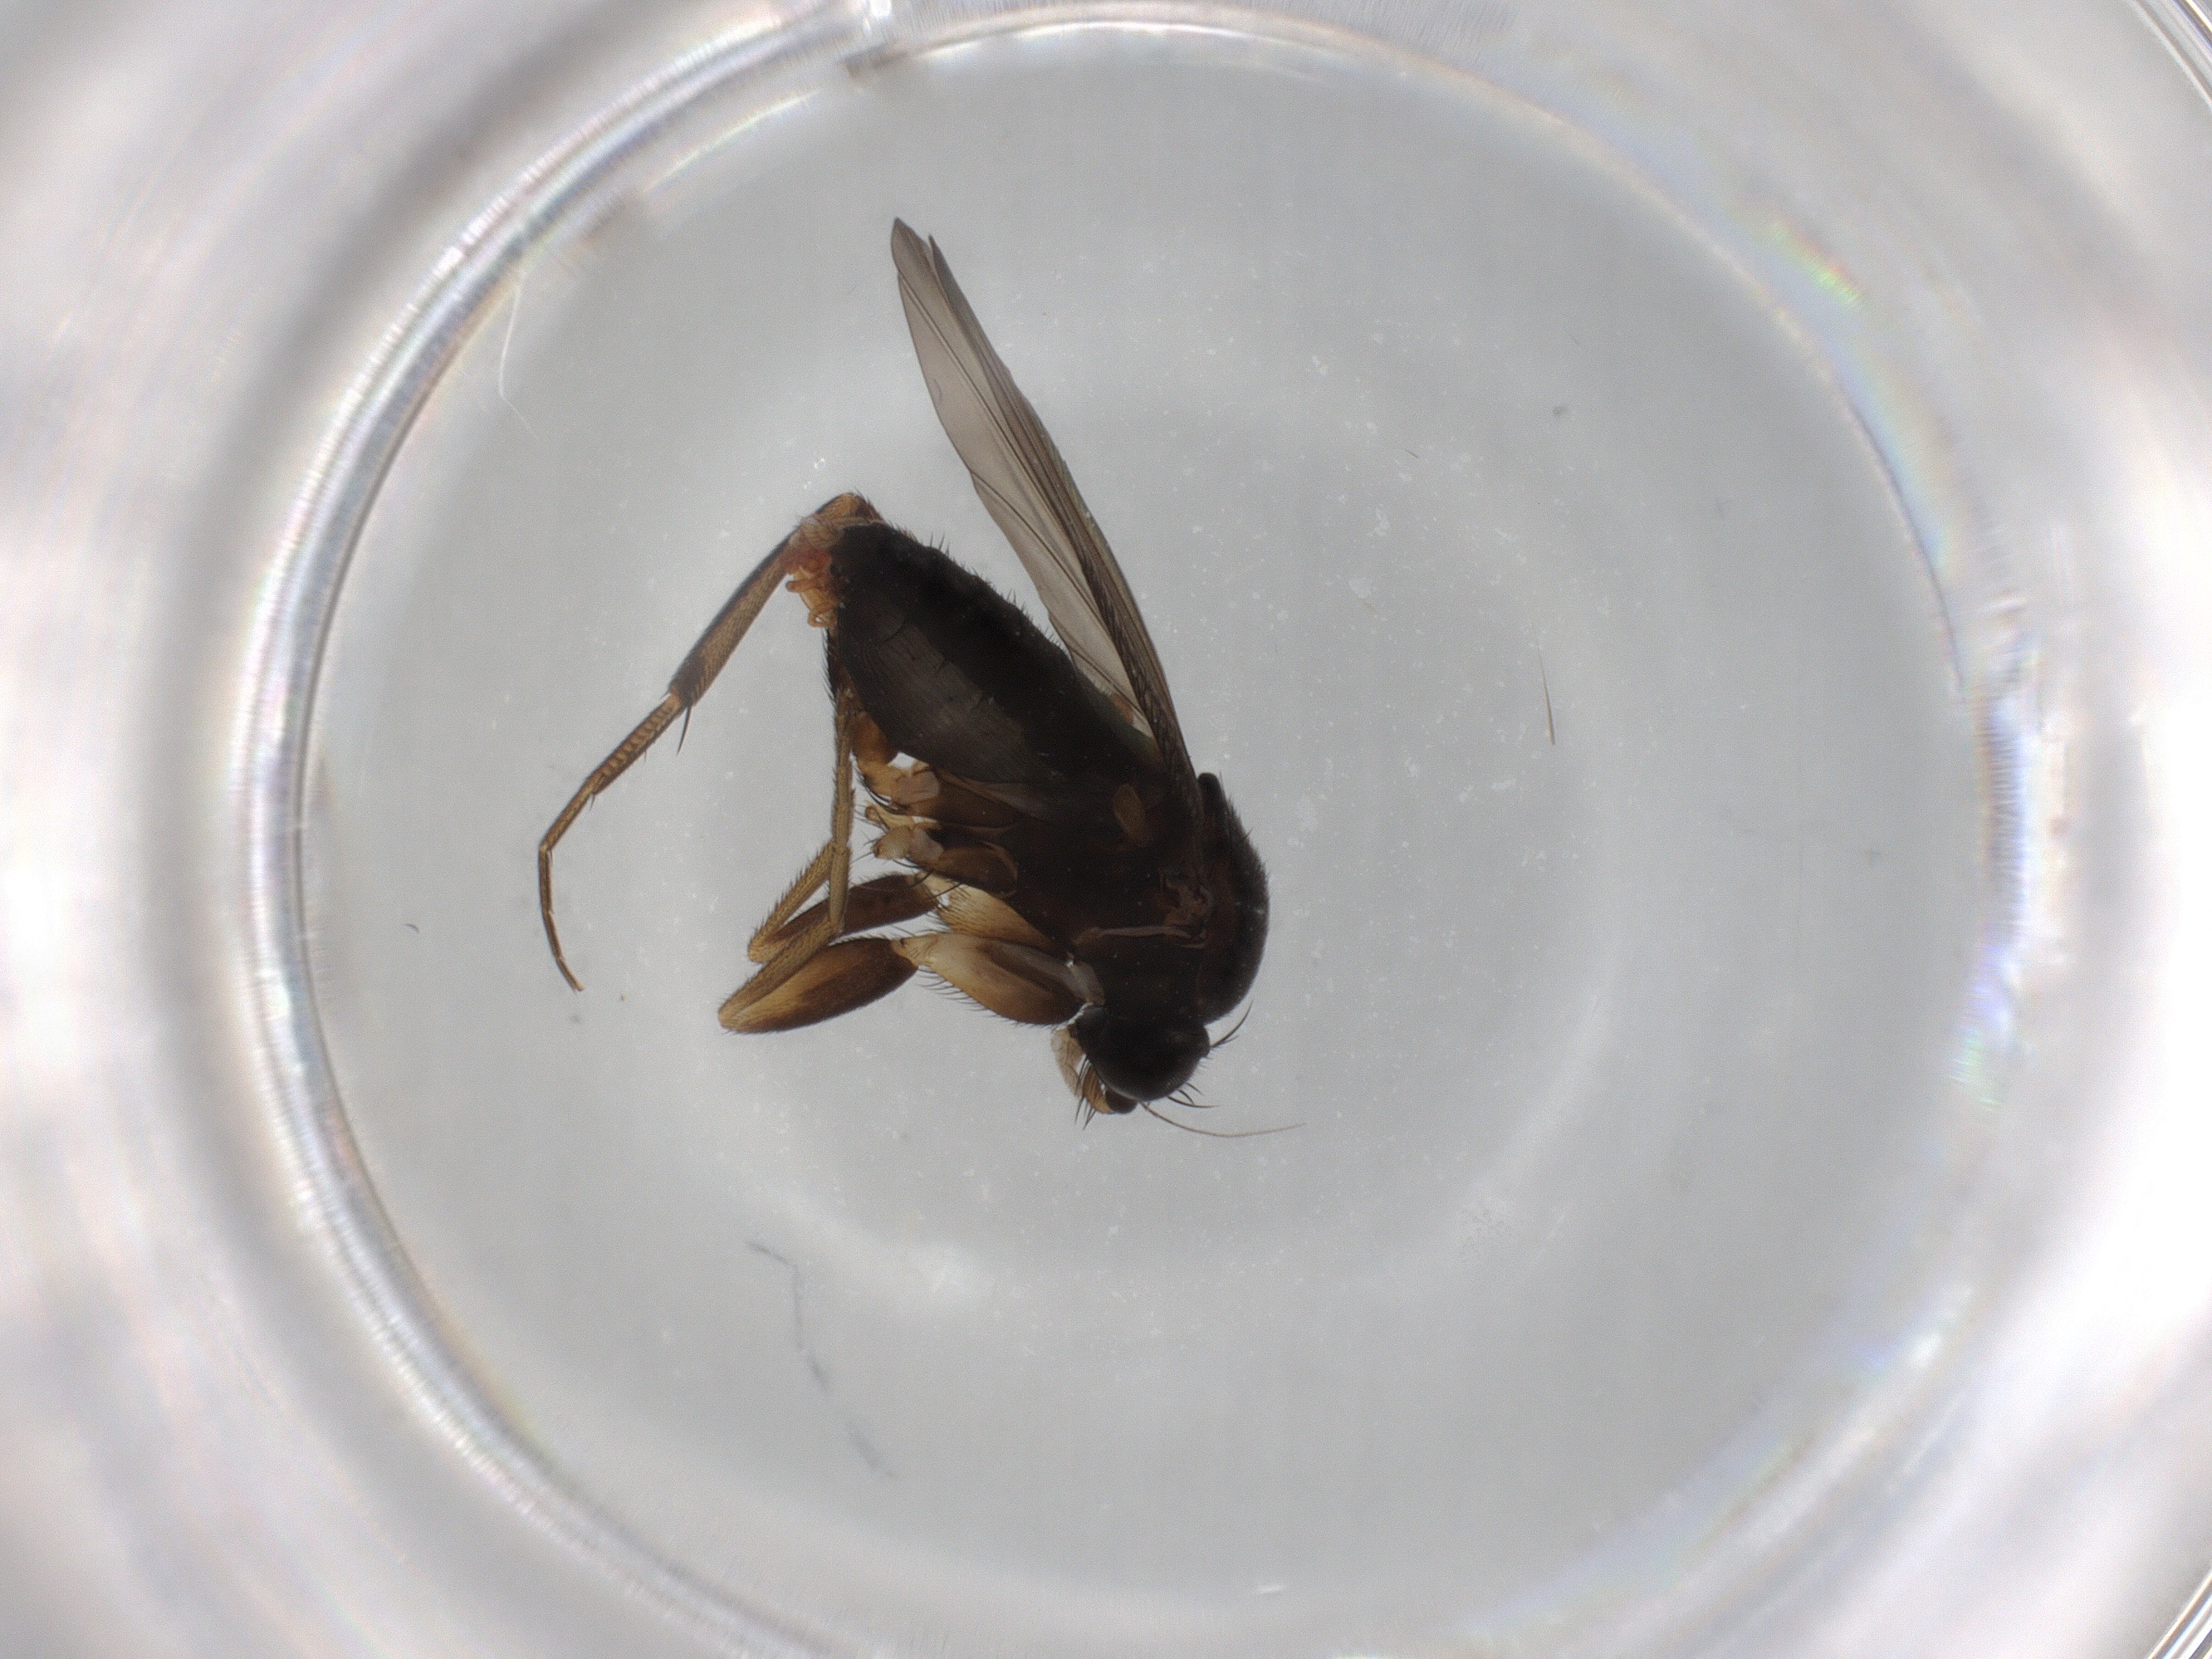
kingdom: Animalia
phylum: Arthropoda
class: Insecta
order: Diptera
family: Phoridae
